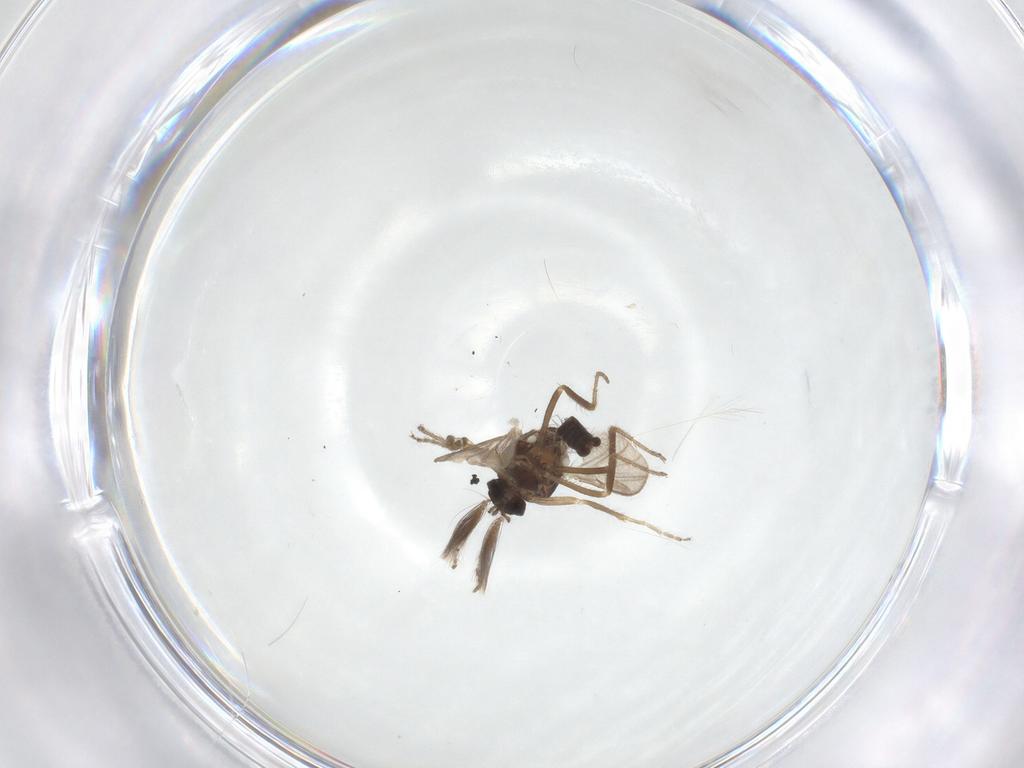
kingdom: Animalia
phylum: Arthropoda
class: Insecta
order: Diptera
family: Ceratopogonidae
